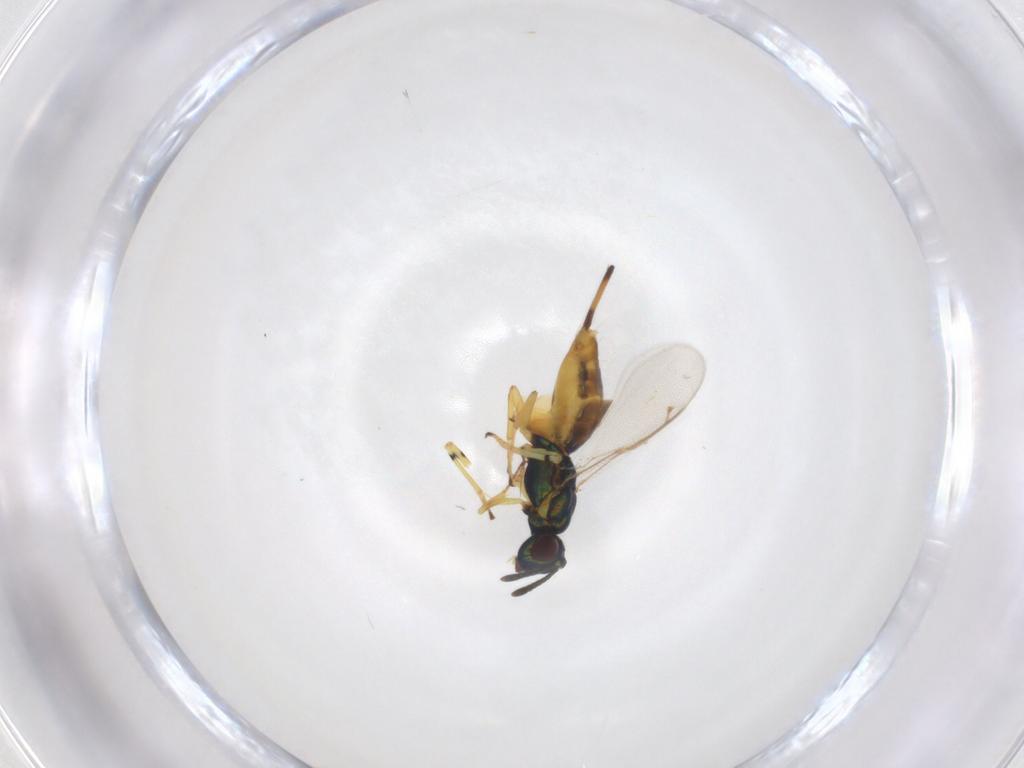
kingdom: Animalia
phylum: Arthropoda
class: Insecta
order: Hymenoptera
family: Eupelmidae
